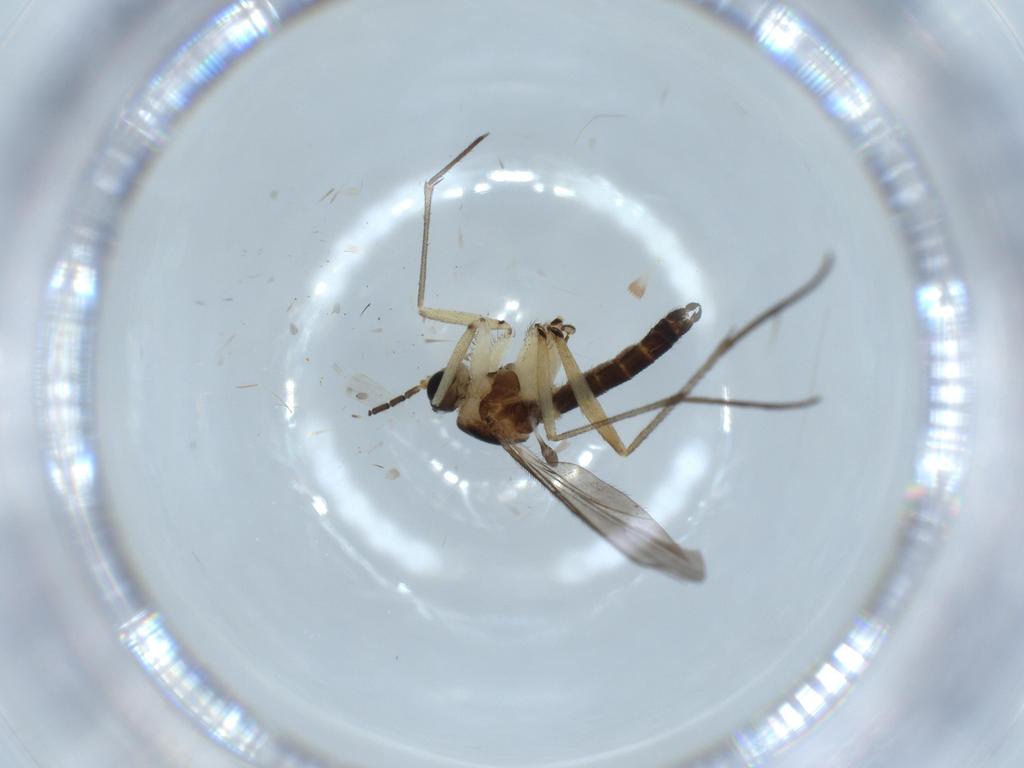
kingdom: Animalia
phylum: Arthropoda
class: Insecta
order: Diptera
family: Sciaridae
